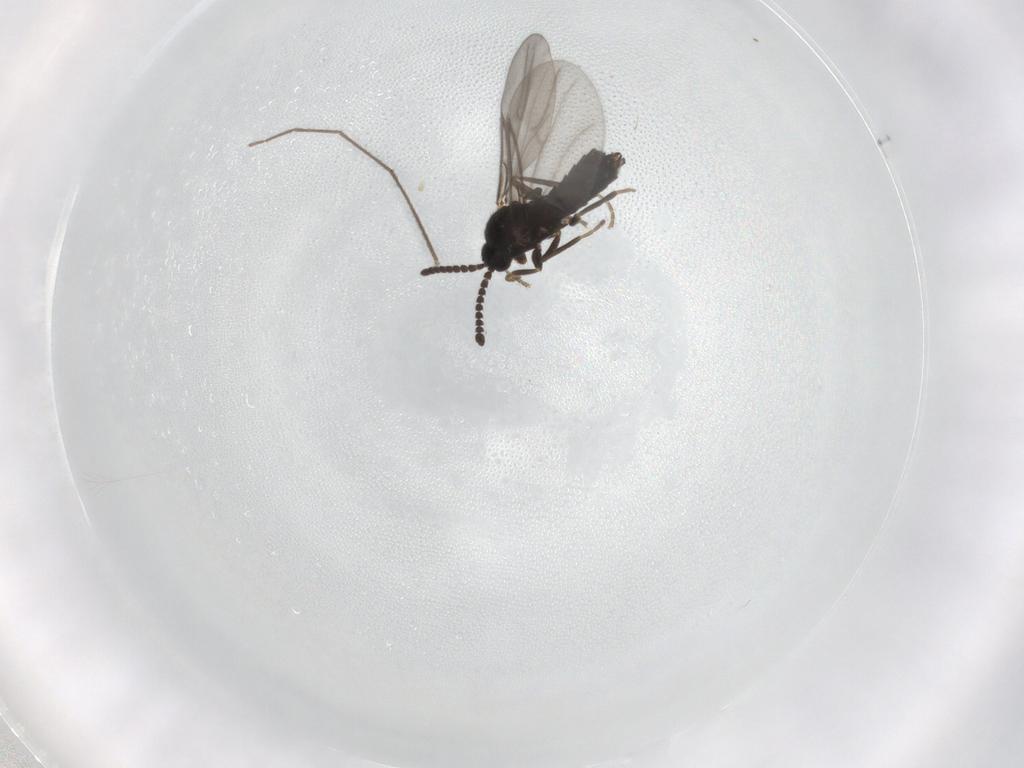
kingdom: Animalia
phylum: Arthropoda
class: Insecta
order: Diptera
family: Scatopsidae
